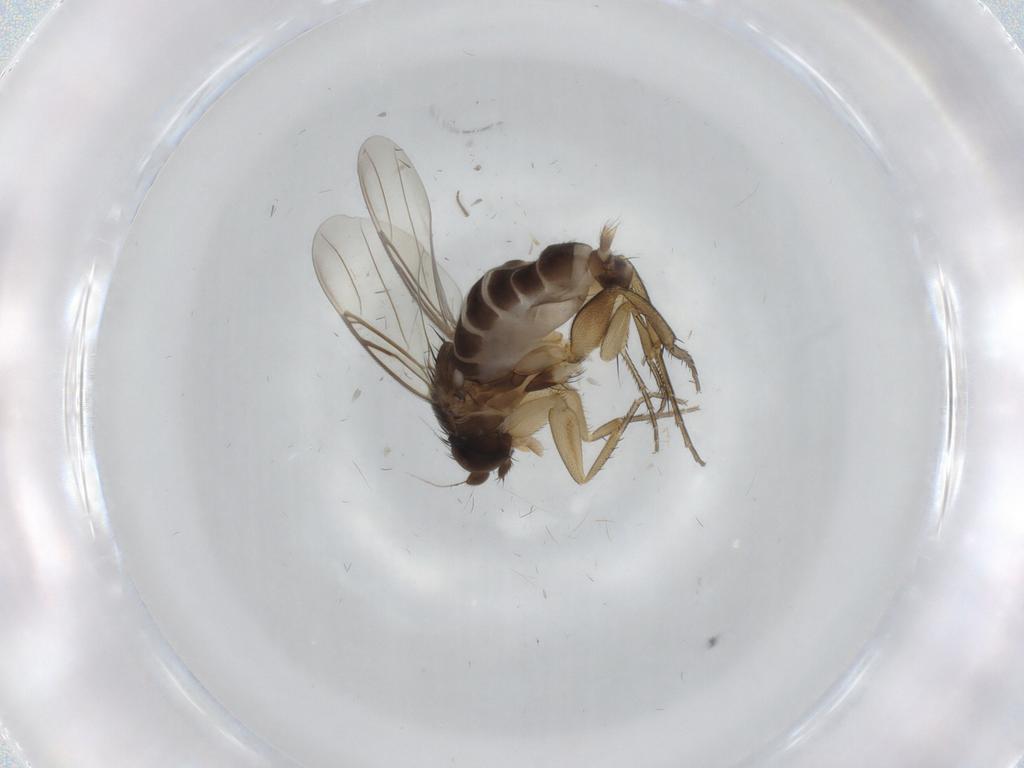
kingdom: Animalia
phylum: Arthropoda
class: Insecta
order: Diptera
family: Phoridae
